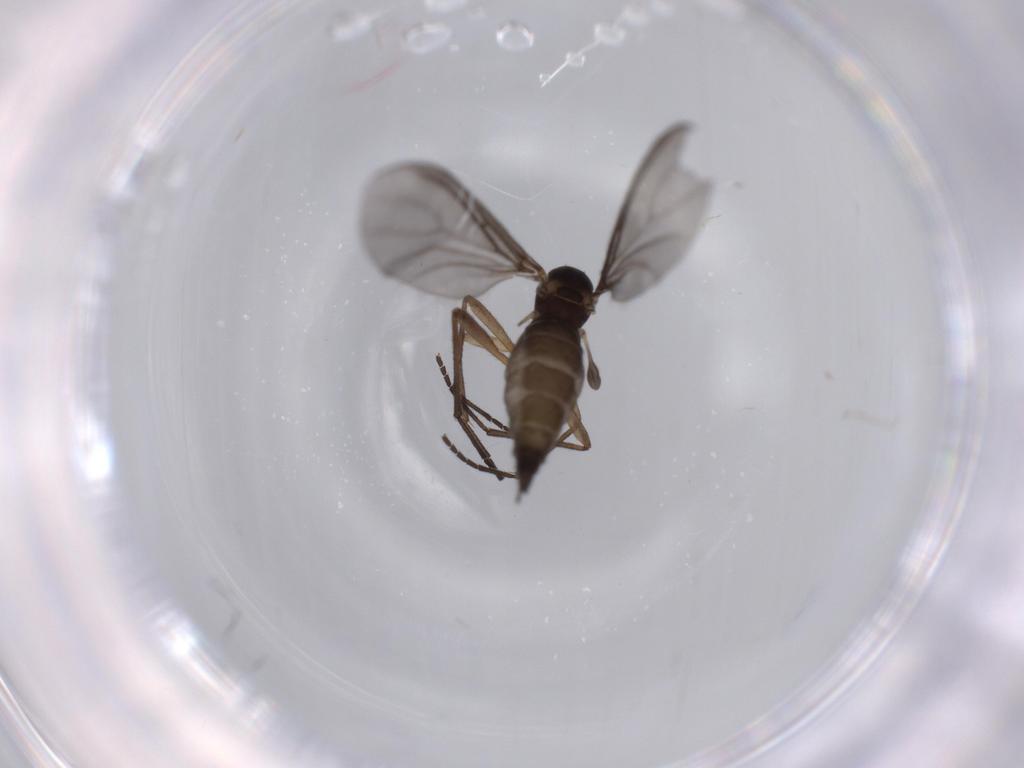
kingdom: Animalia
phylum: Arthropoda
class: Insecta
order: Diptera
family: Sciaridae
